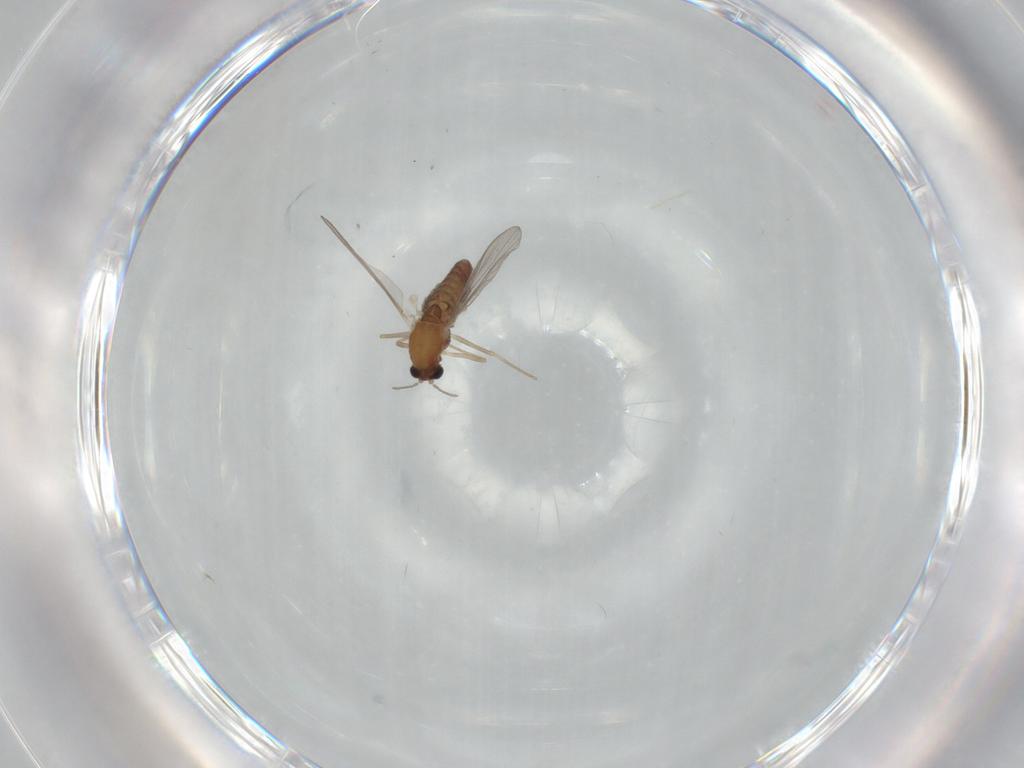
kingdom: Animalia
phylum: Arthropoda
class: Insecta
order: Diptera
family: Chironomidae
